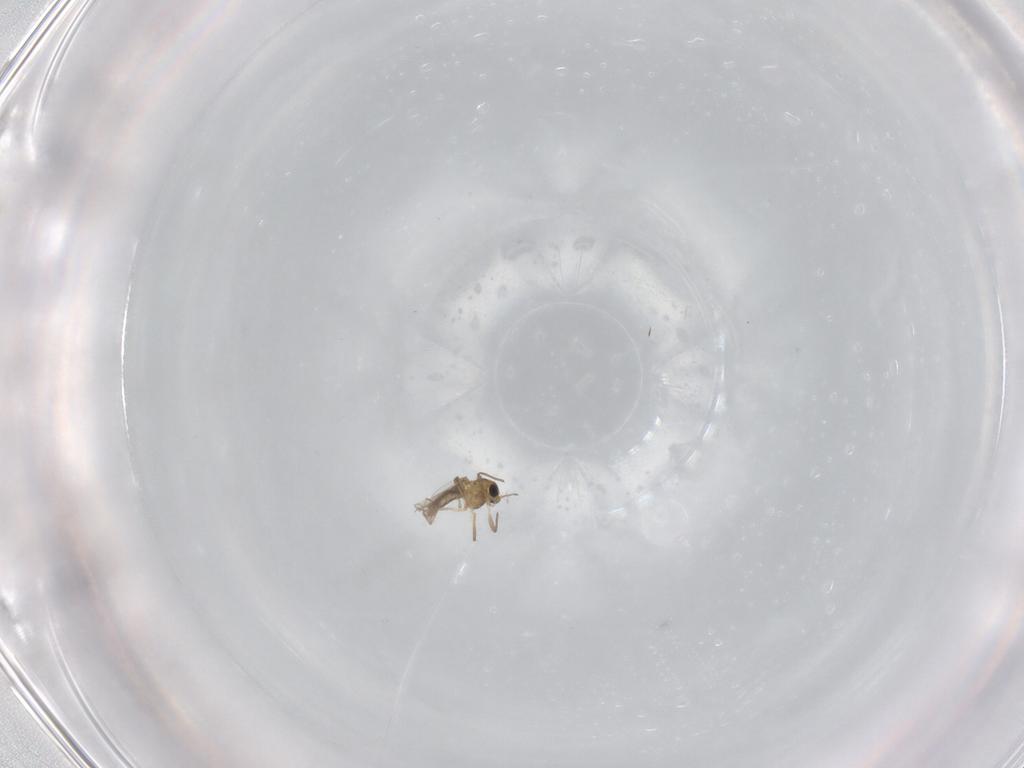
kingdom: Animalia
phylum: Arthropoda
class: Insecta
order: Diptera
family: Chironomidae
